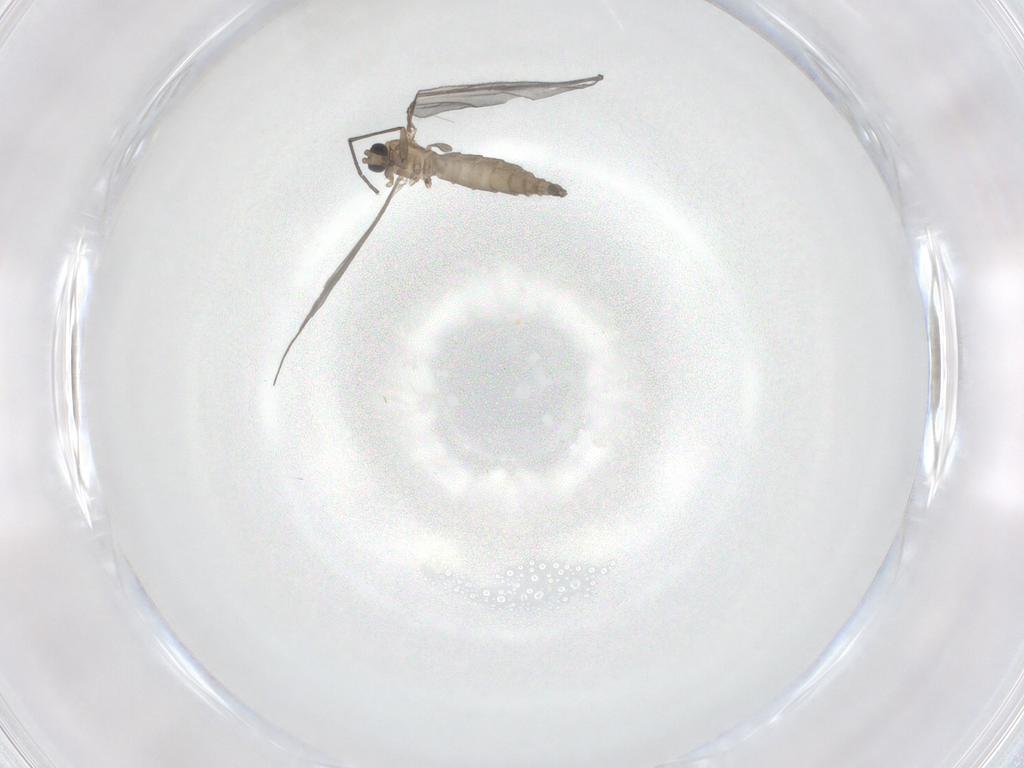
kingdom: Animalia
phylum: Arthropoda
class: Insecta
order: Diptera
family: Sciaridae
